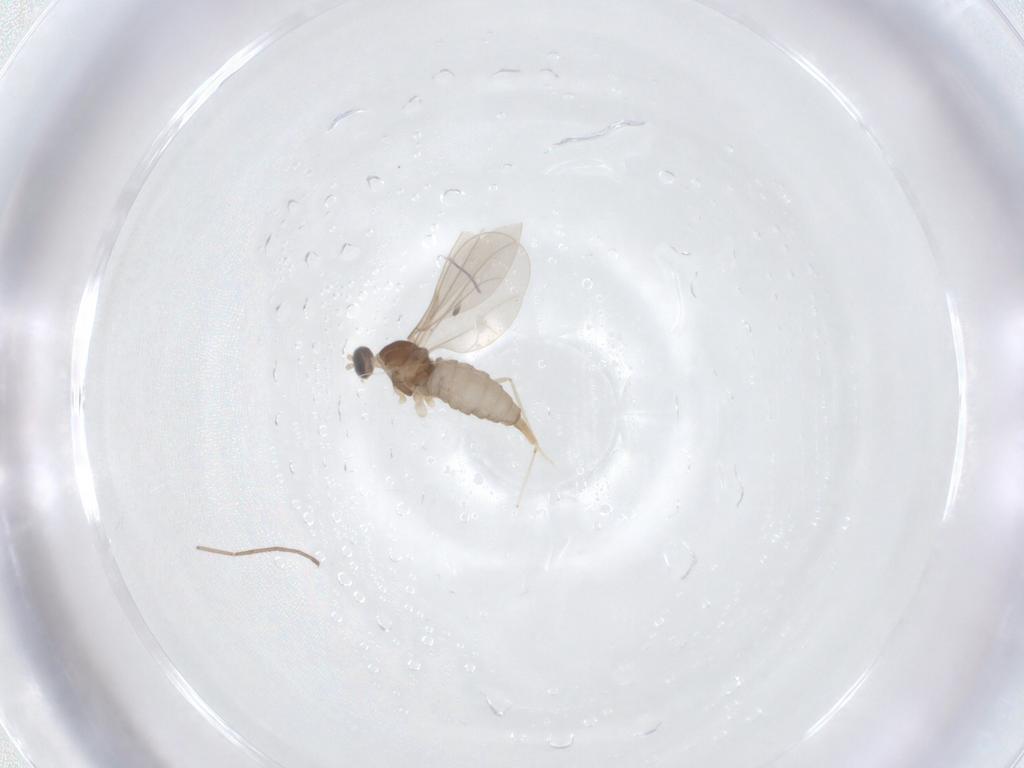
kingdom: Animalia
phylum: Arthropoda
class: Insecta
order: Diptera
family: Cecidomyiidae
